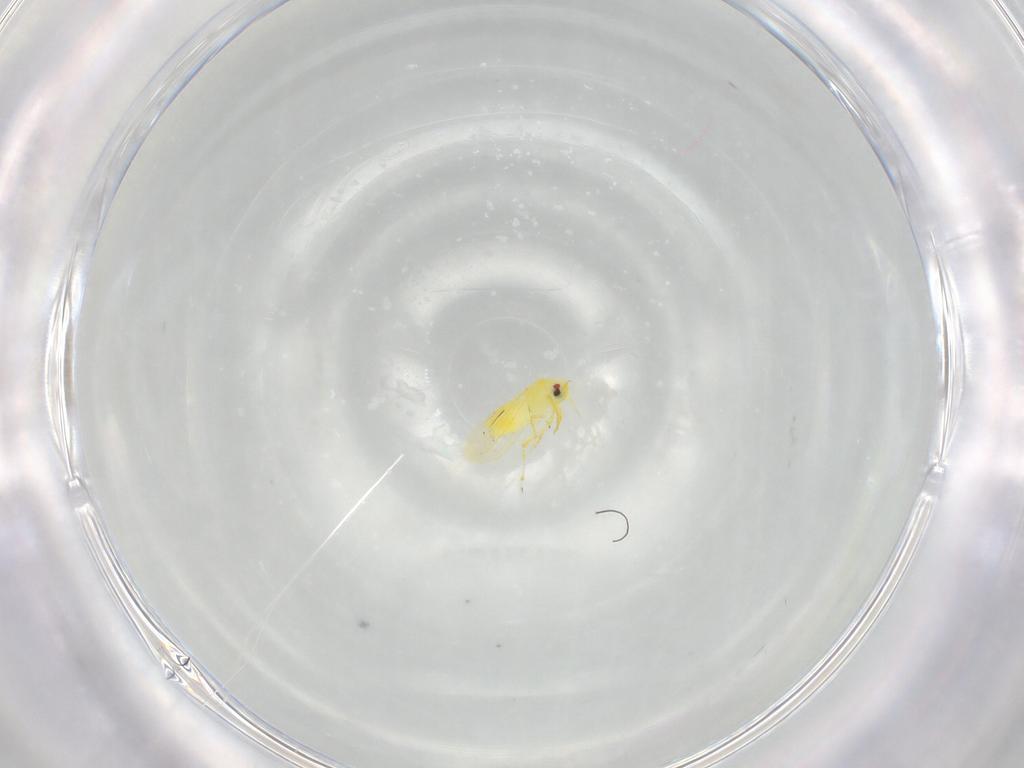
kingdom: Animalia
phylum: Arthropoda
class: Insecta
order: Hemiptera
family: Aleyrodidae
